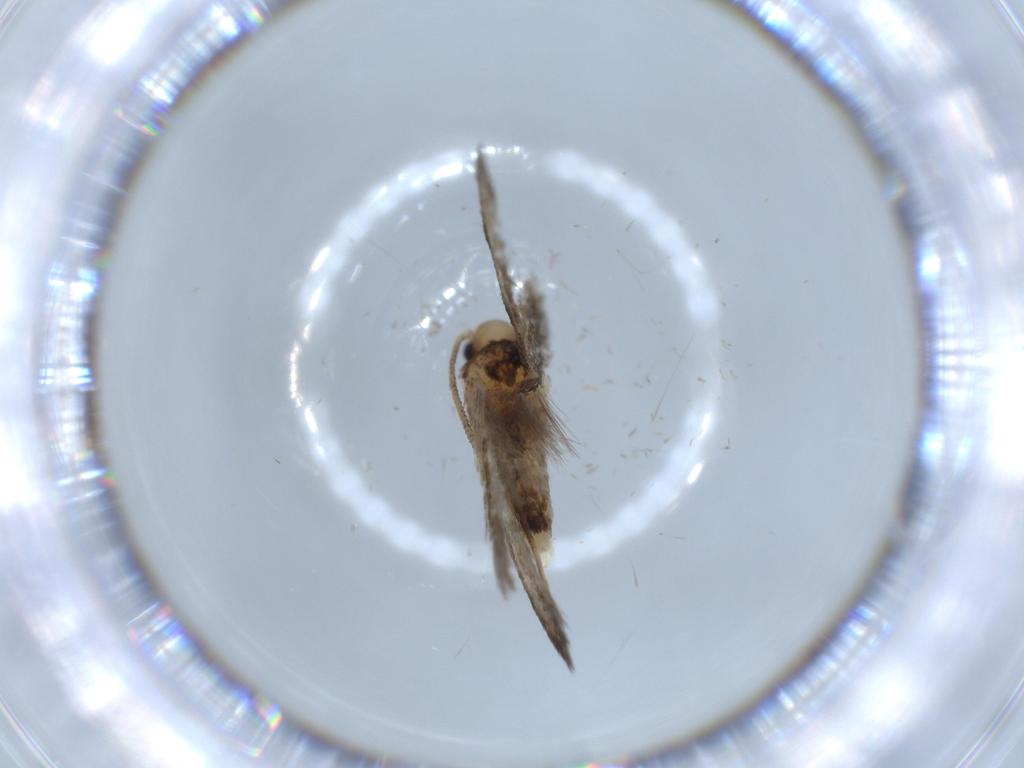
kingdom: Animalia
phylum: Arthropoda
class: Insecta
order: Lepidoptera
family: Tineidae
